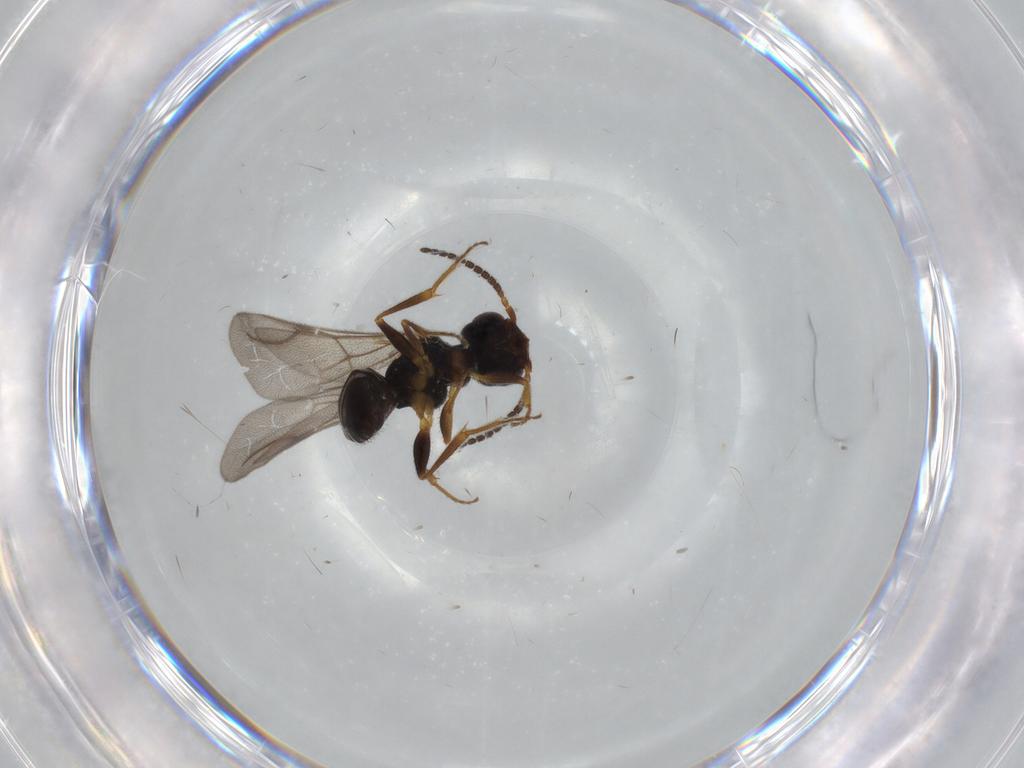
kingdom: Animalia
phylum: Arthropoda
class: Insecta
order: Hymenoptera
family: Bethylidae
